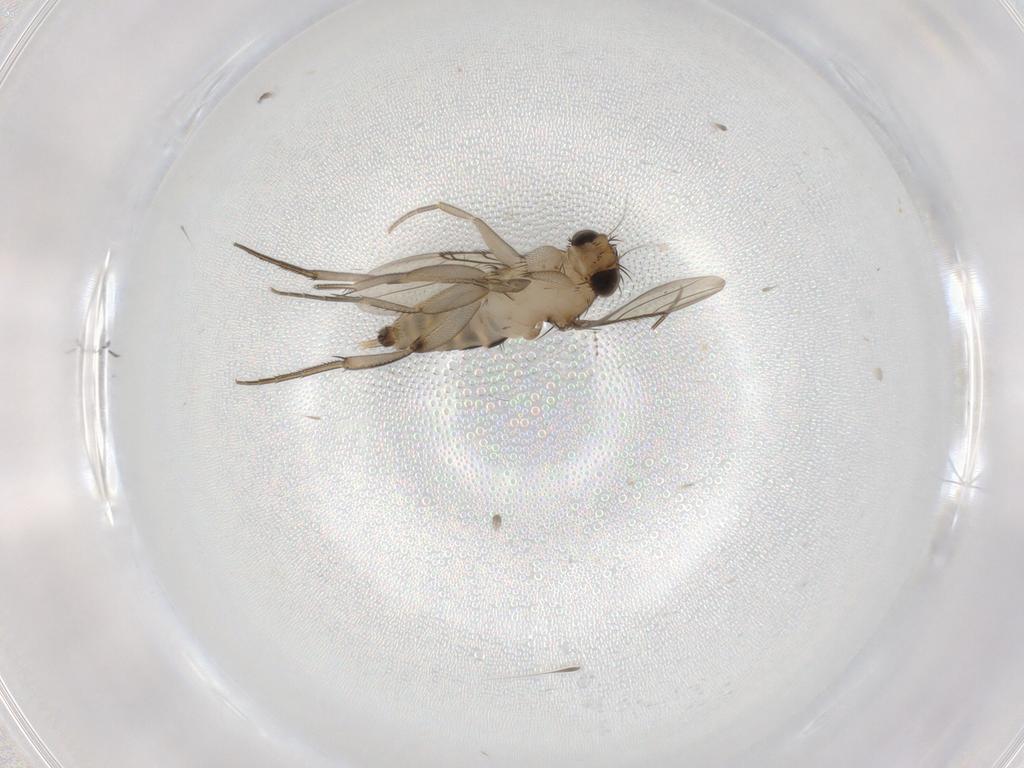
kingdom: Animalia
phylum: Arthropoda
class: Insecta
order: Diptera
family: Phoridae
